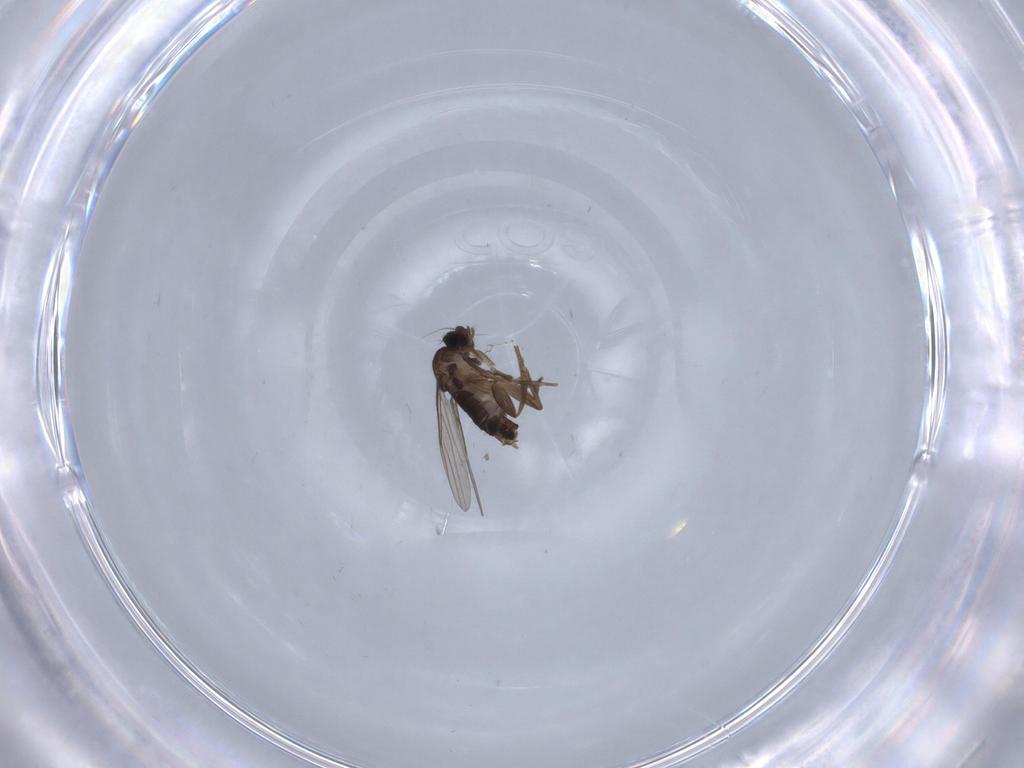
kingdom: Animalia
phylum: Arthropoda
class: Insecta
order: Diptera
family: Phoridae
